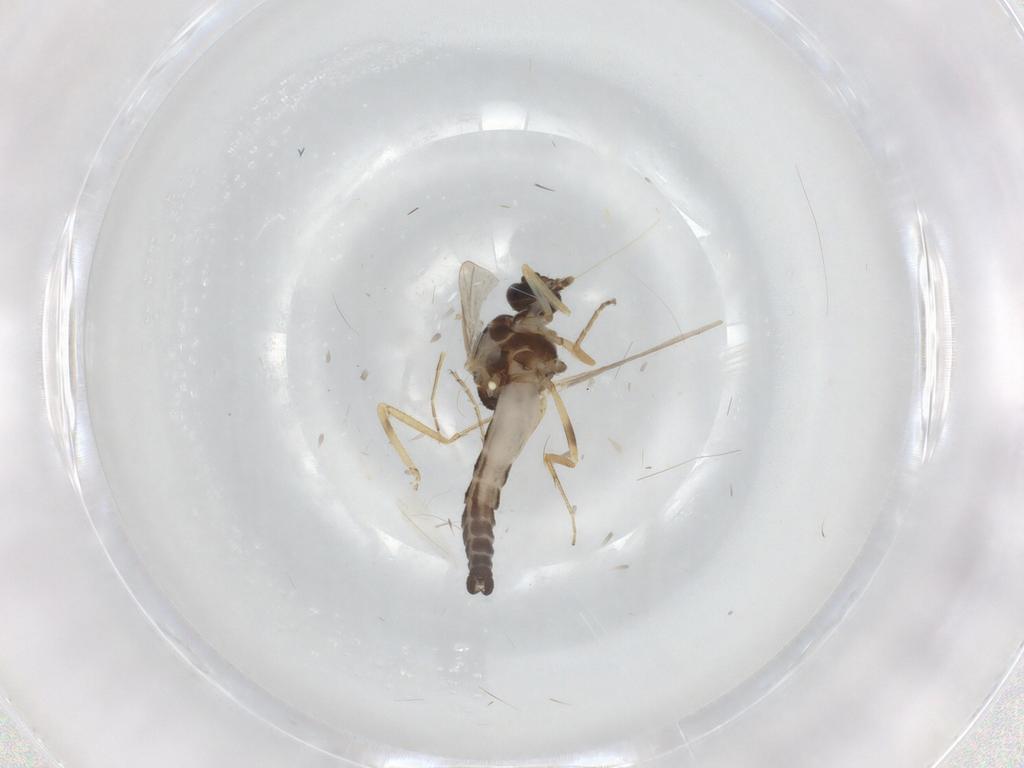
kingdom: Animalia
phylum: Arthropoda
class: Insecta
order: Diptera
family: Ceratopogonidae
